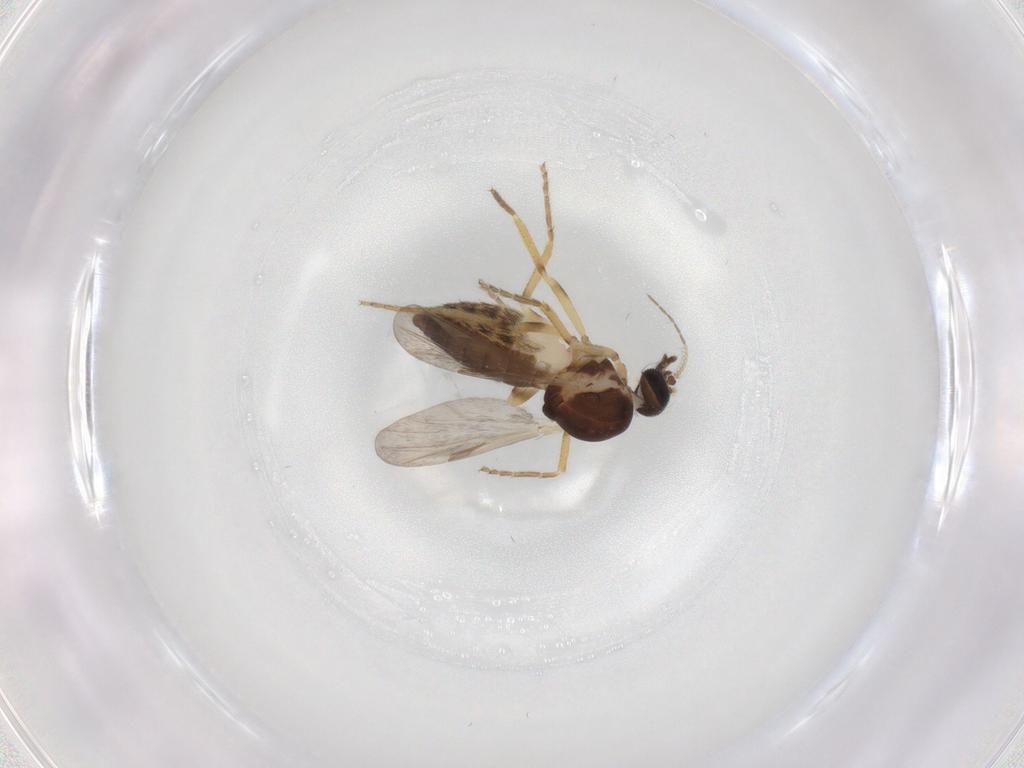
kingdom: Animalia
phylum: Arthropoda
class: Insecta
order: Diptera
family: Ceratopogonidae
